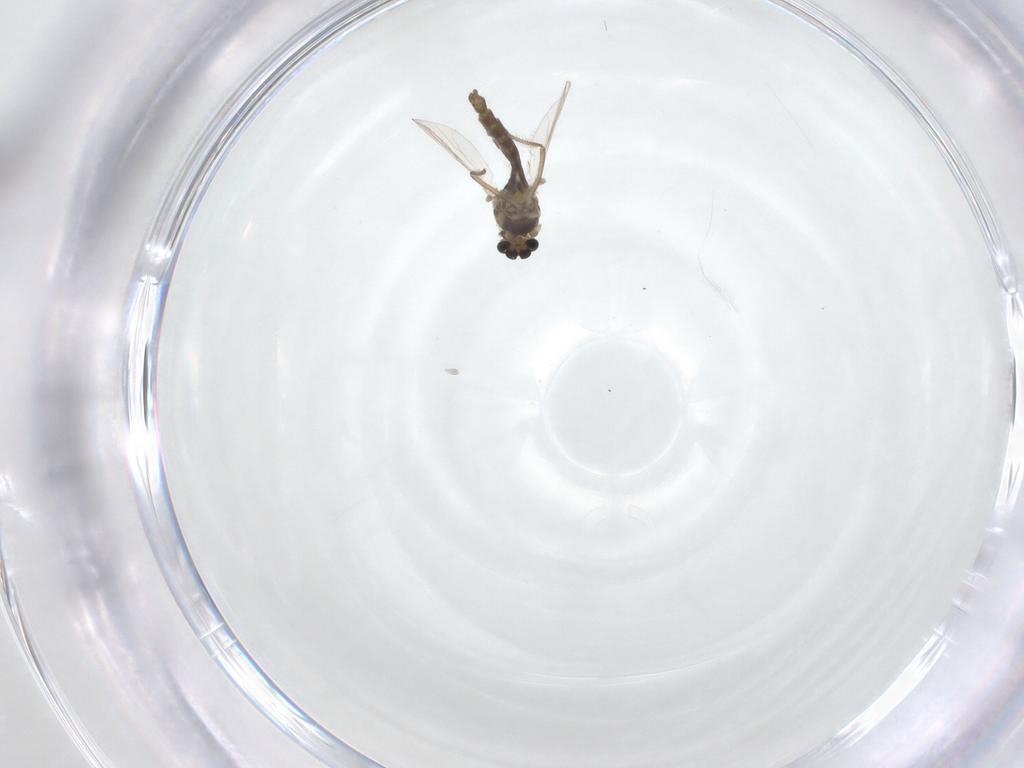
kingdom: Animalia
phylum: Arthropoda
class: Insecta
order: Diptera
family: Chironomidae
